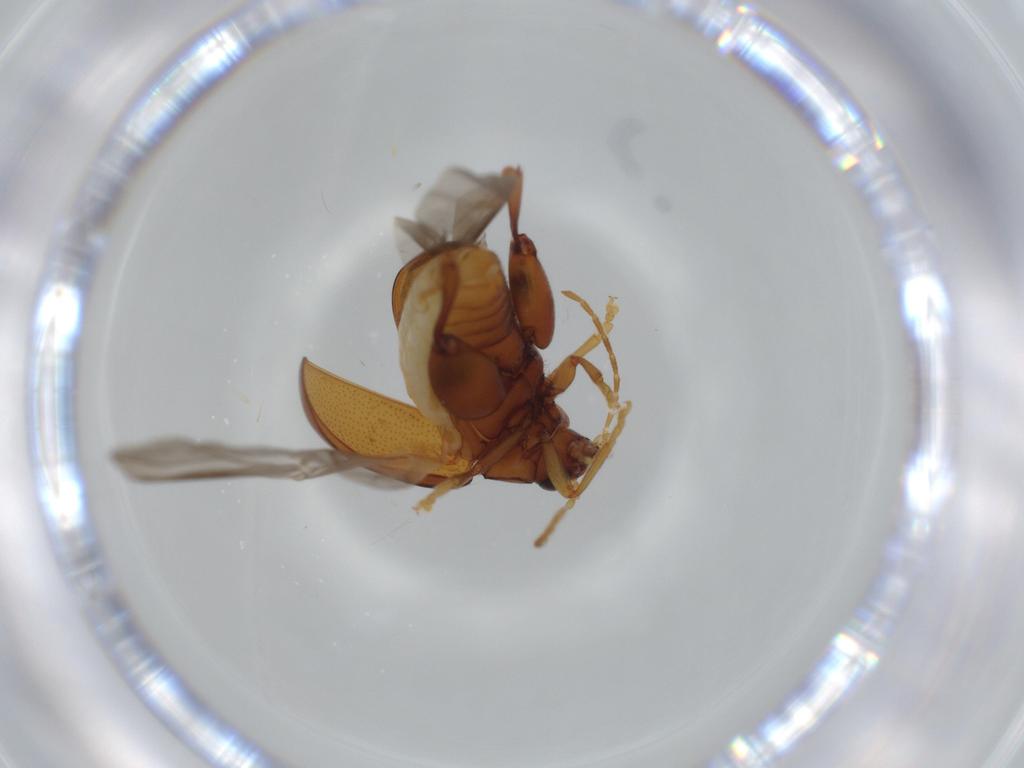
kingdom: Animalia
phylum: Arthropoda
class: Insecta
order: Coleoptera
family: Chrysomelidae
